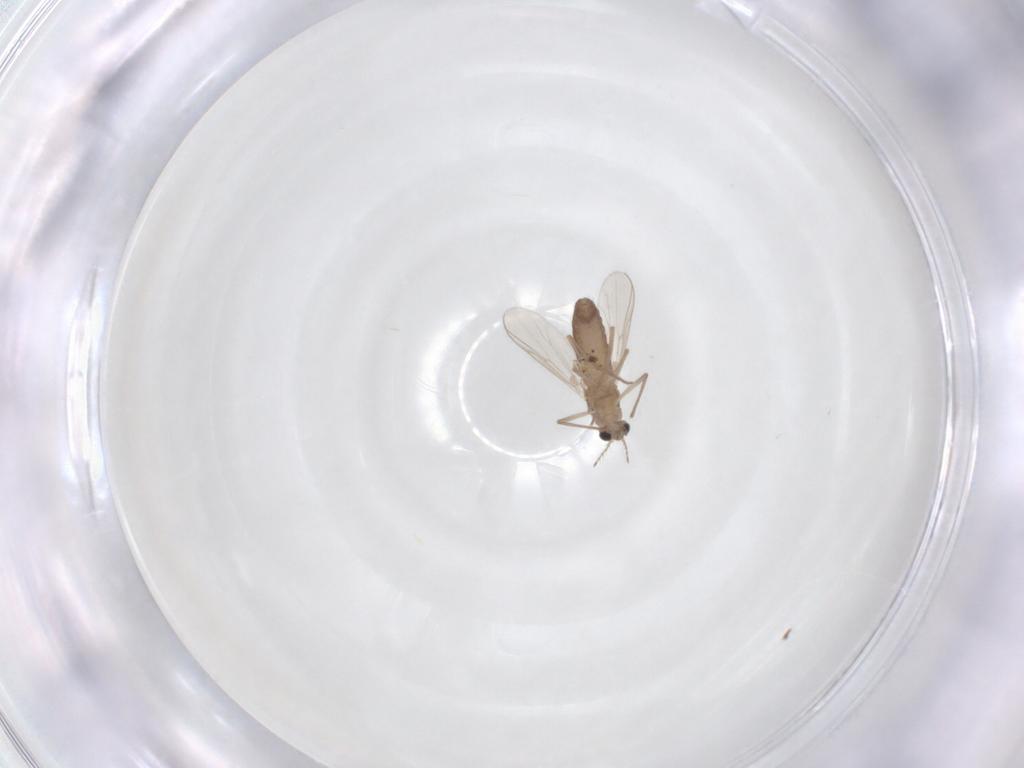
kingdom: Animalia
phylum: Arthropoda
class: Insecta
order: Diptera
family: Chironomidae
